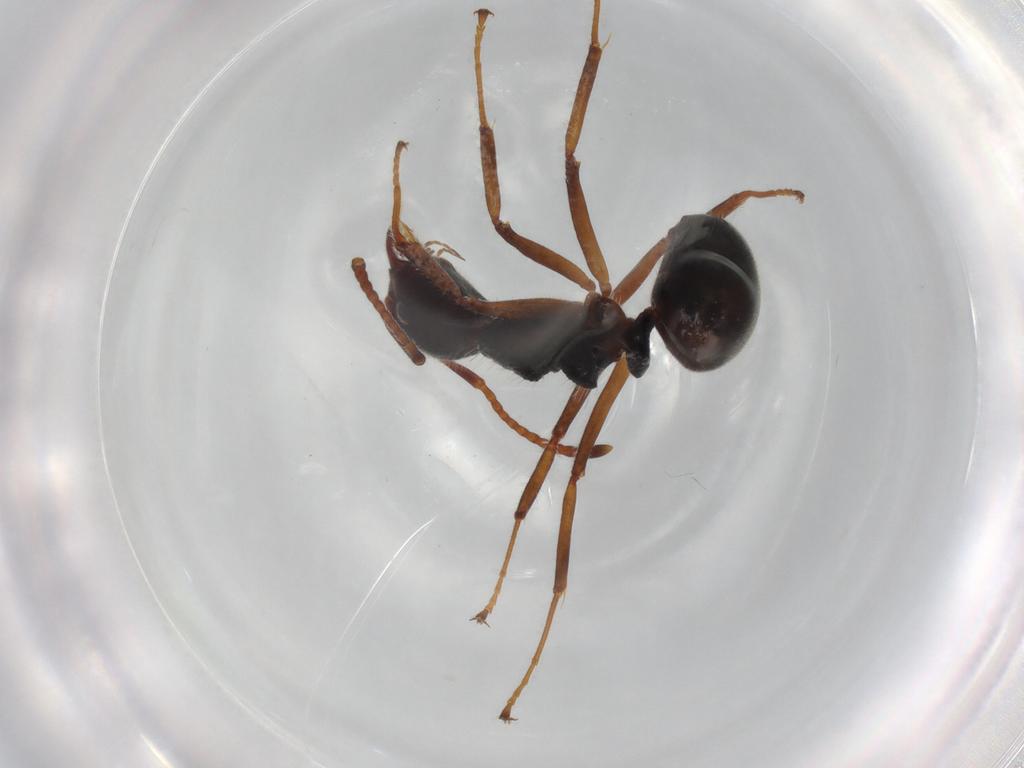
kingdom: Animalia
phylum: Arthropoda
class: Insecta
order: Hymenoptera
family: Formicidae
